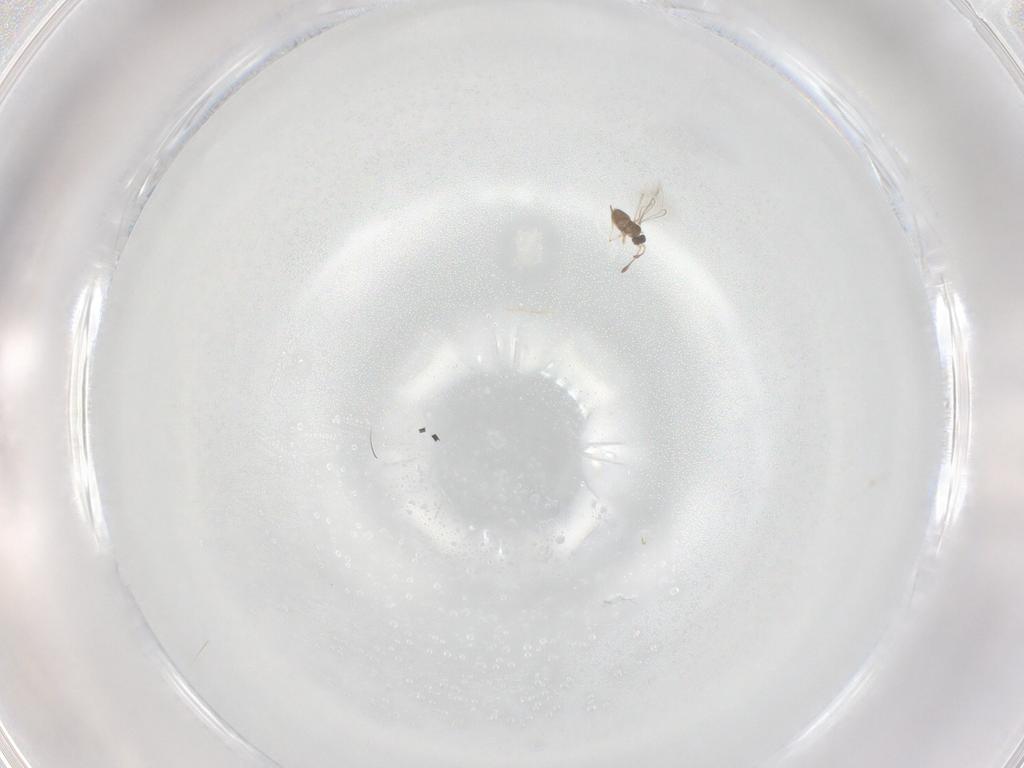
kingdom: Animalia
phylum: Arthropoda
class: Insecta
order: Hymenoptera
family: Mymaridae
